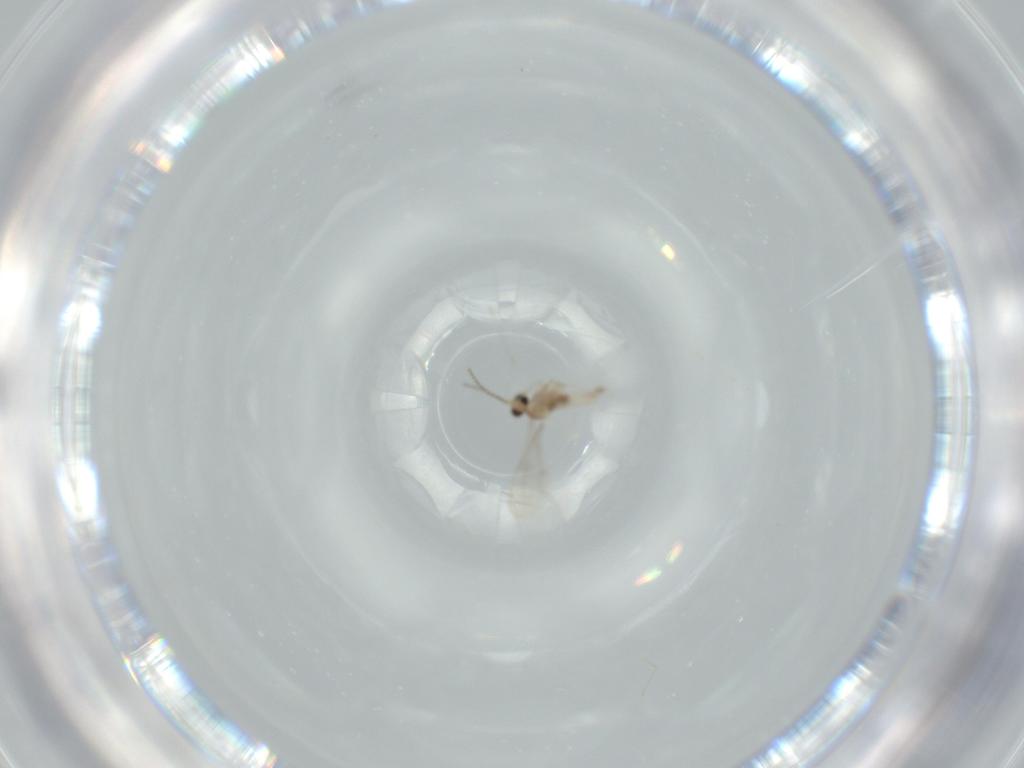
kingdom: Animalia
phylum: Arthropoda
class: Insecta
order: Diptera
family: Cecidomyiidae
